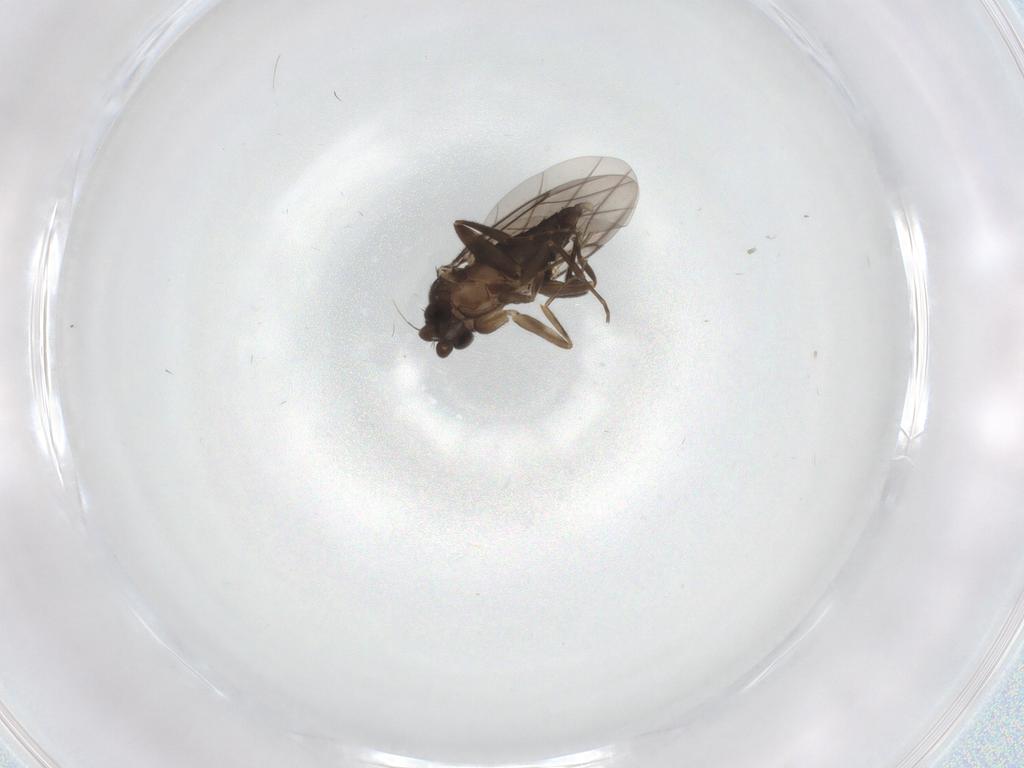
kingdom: Animalia
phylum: Arthropoda
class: Insecta
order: Diptera
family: Phoridae
